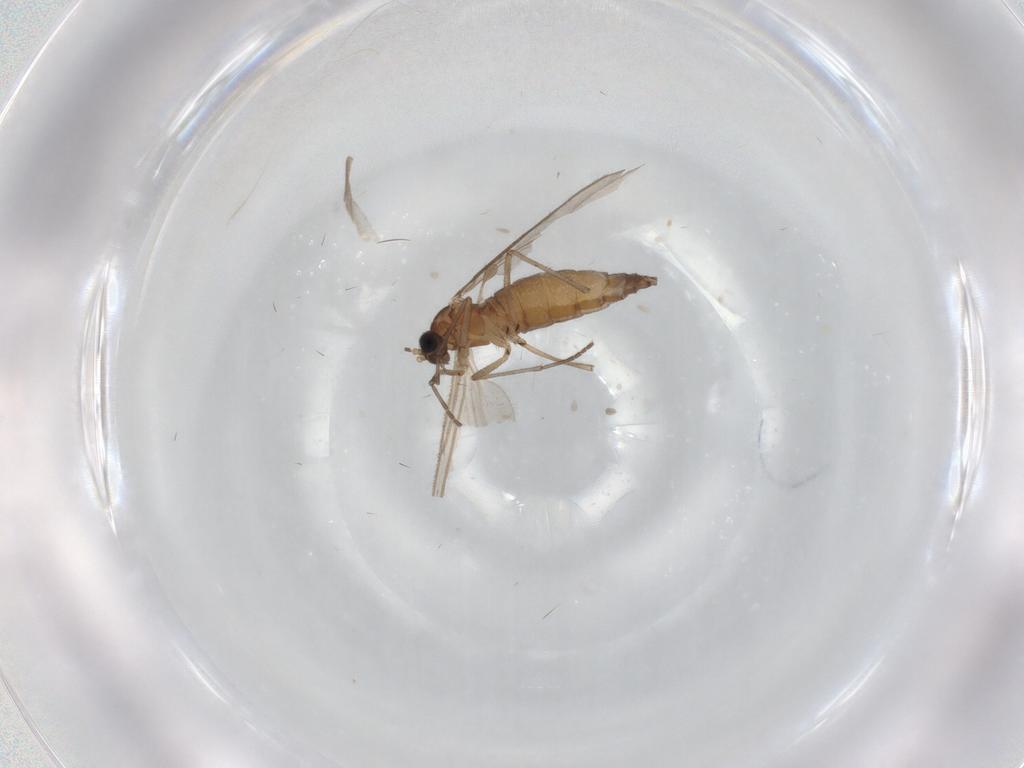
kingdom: Animalia
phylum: Arthropoda
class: Insecta
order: Diptera
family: Sciaridae
